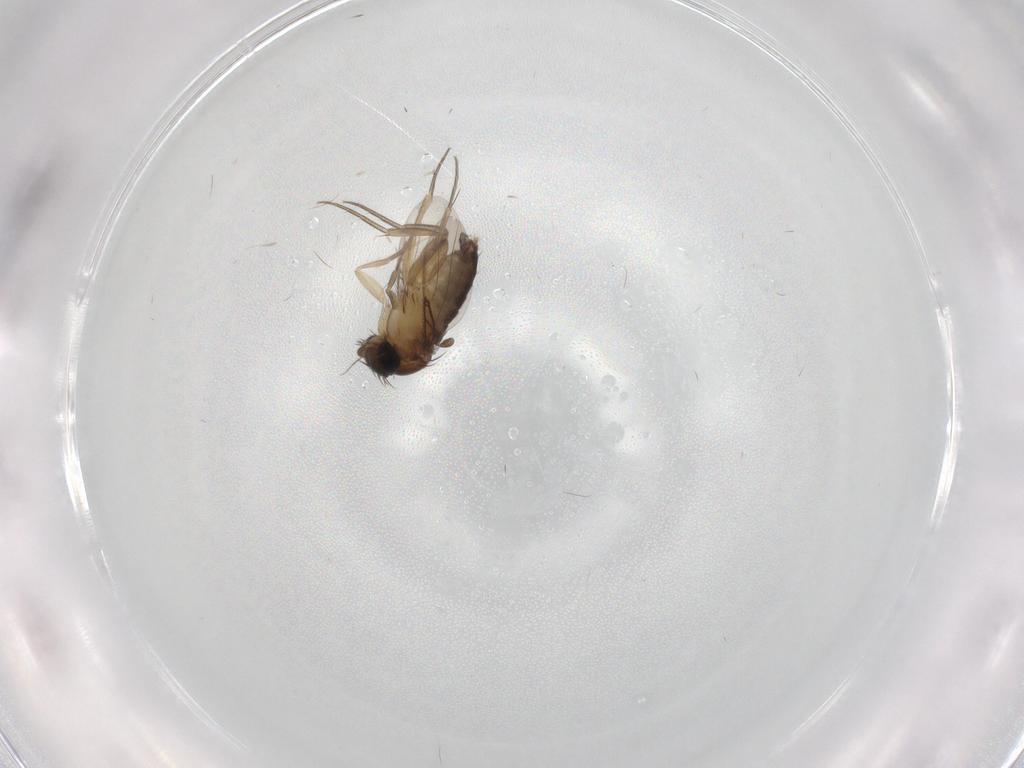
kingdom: Animalia
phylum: Arthropoda
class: Insecta
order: Diptera
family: Phoridae
